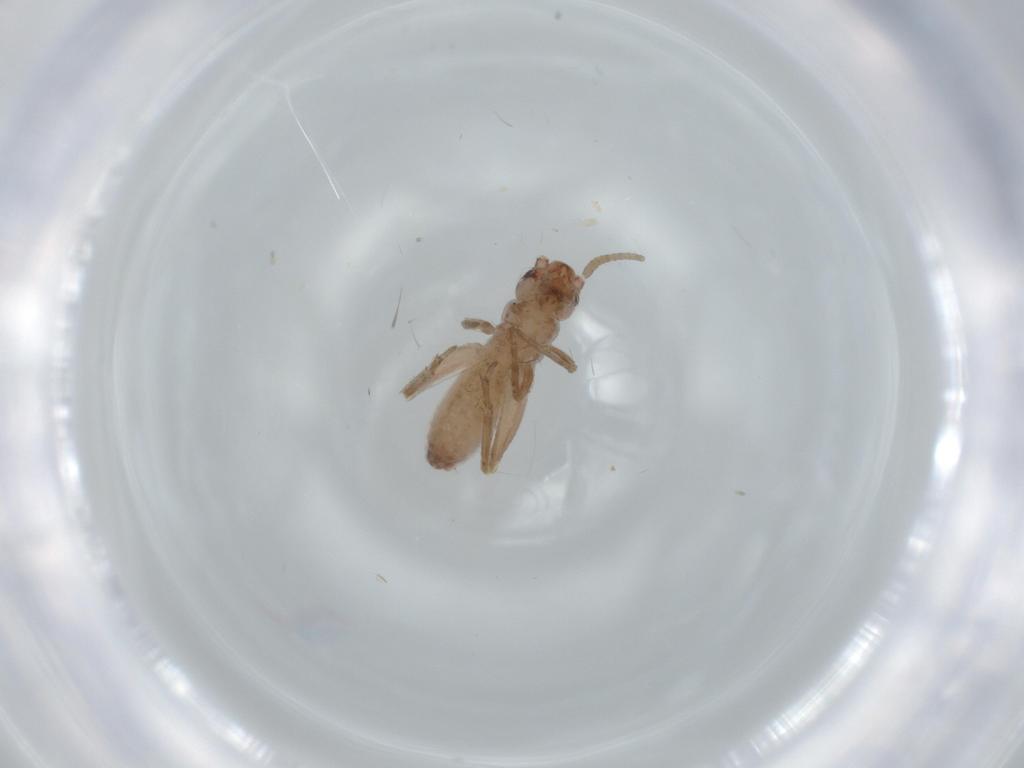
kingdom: Animalia
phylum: Arthropoda
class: Insecta
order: Orthoptera
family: Mogoplistidae
